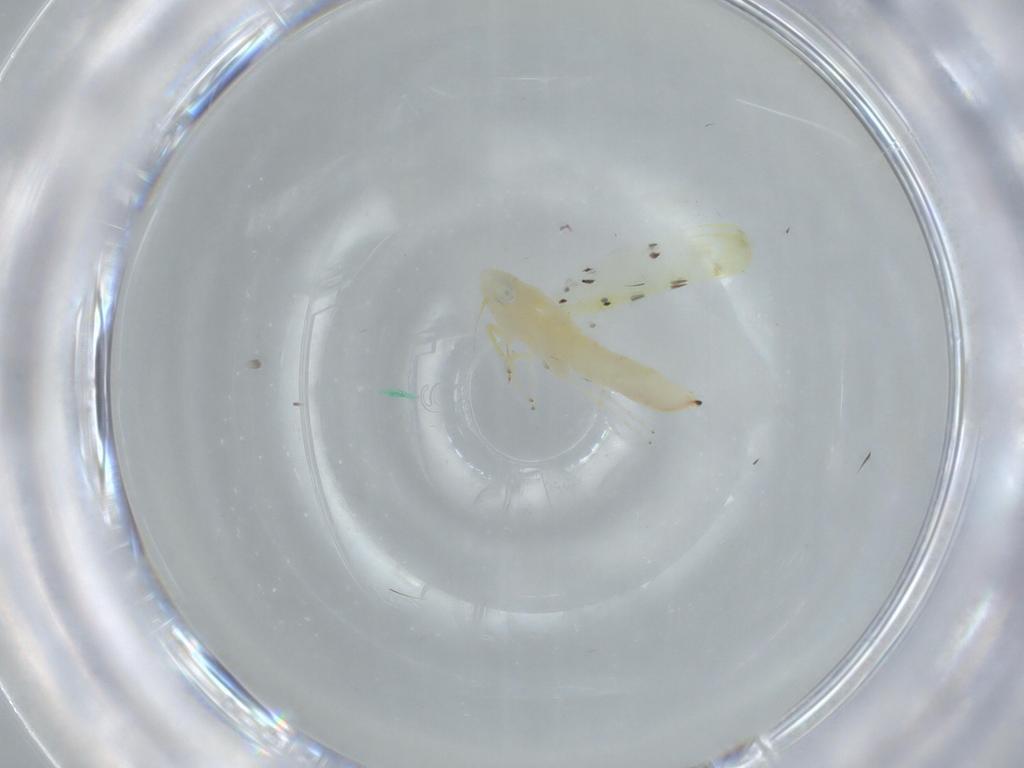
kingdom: Animalia
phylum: Arthropoda
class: Insecta
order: Hemiptera
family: Cicadellidae
